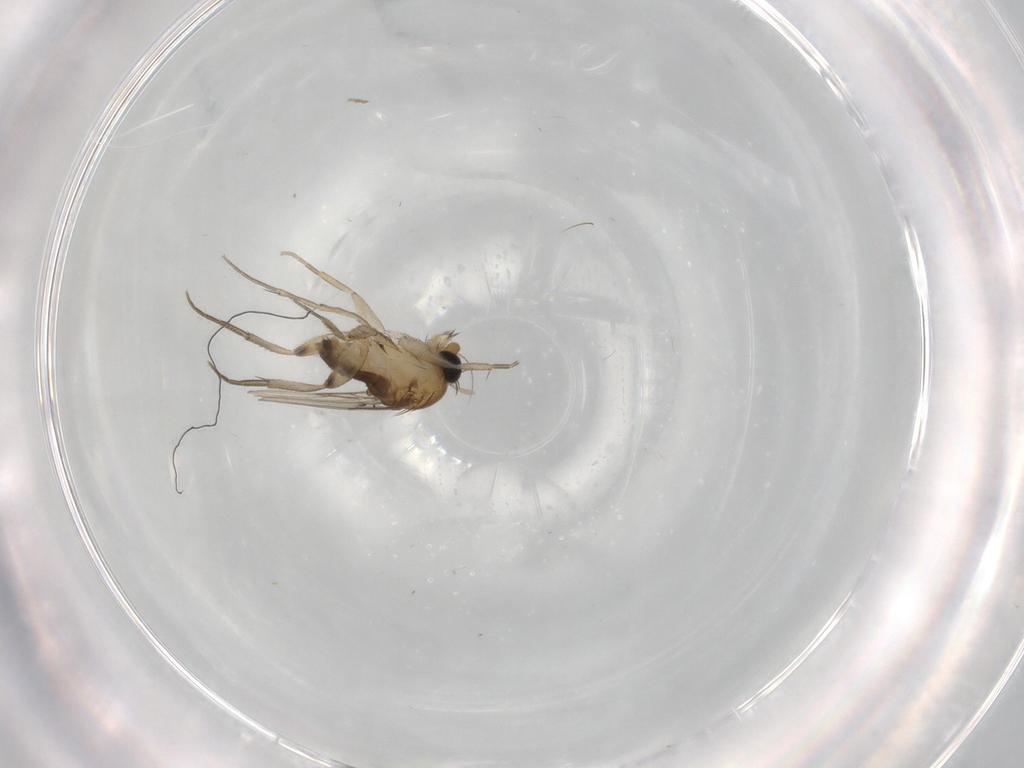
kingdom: Animalia
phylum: Arthropoda
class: Insecta
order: Diptera
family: Phoridae
